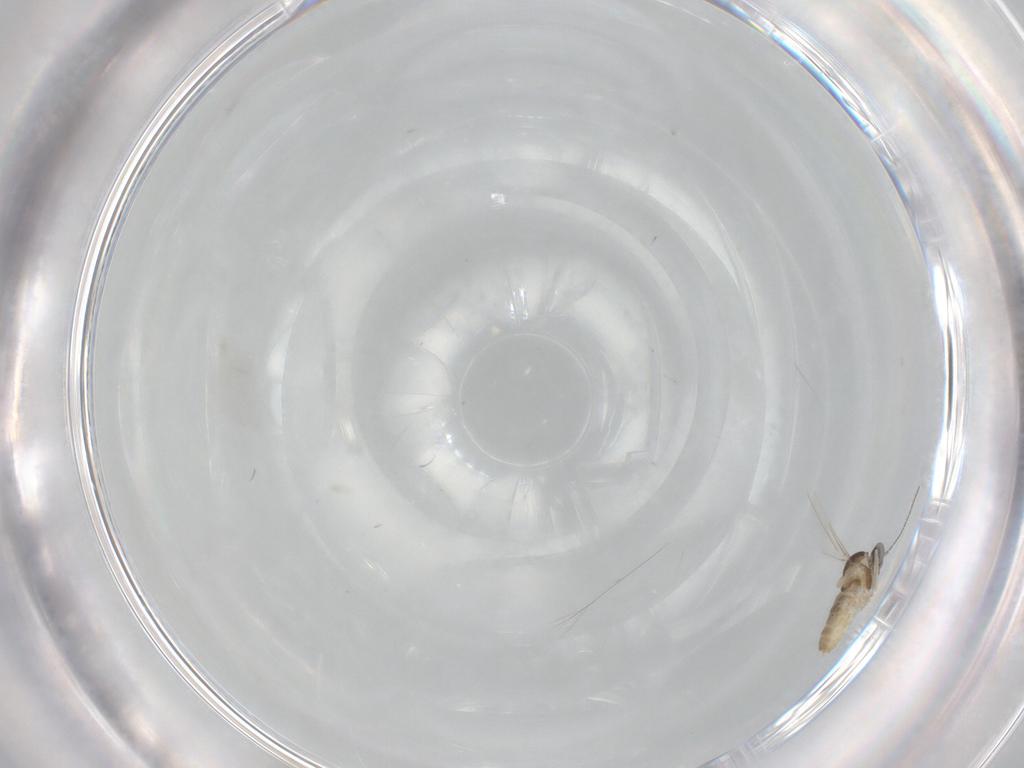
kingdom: Animalia
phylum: Arthropoda
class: Insecta
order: Diptera
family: Cecidomyiidae
